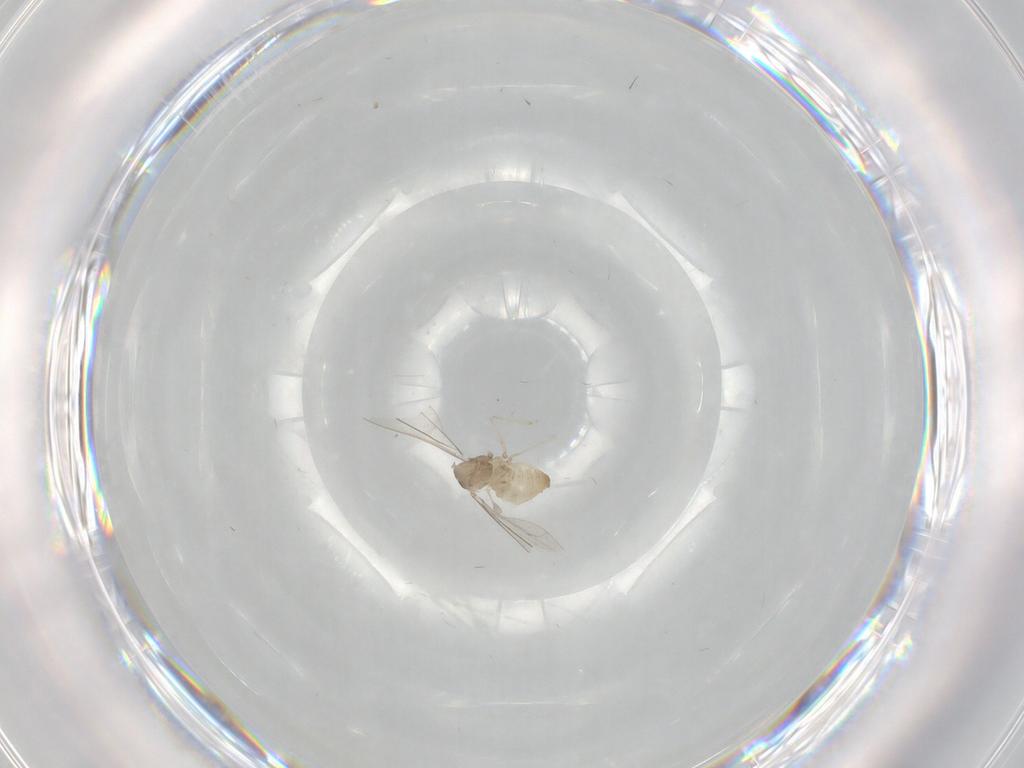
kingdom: Animalia
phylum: Arthropoda
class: Insecta
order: Diptera
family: Cecidomyiidae
